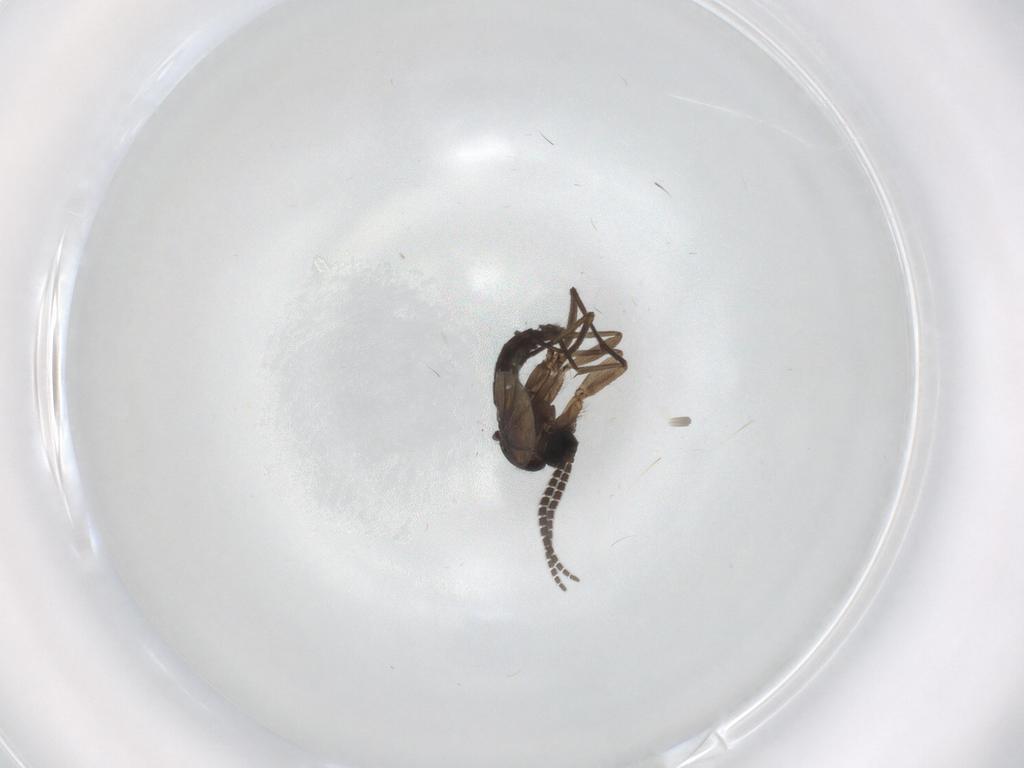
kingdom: Animalia
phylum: Arthropoda
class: Insecta
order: Diptera
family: Sciaridae
